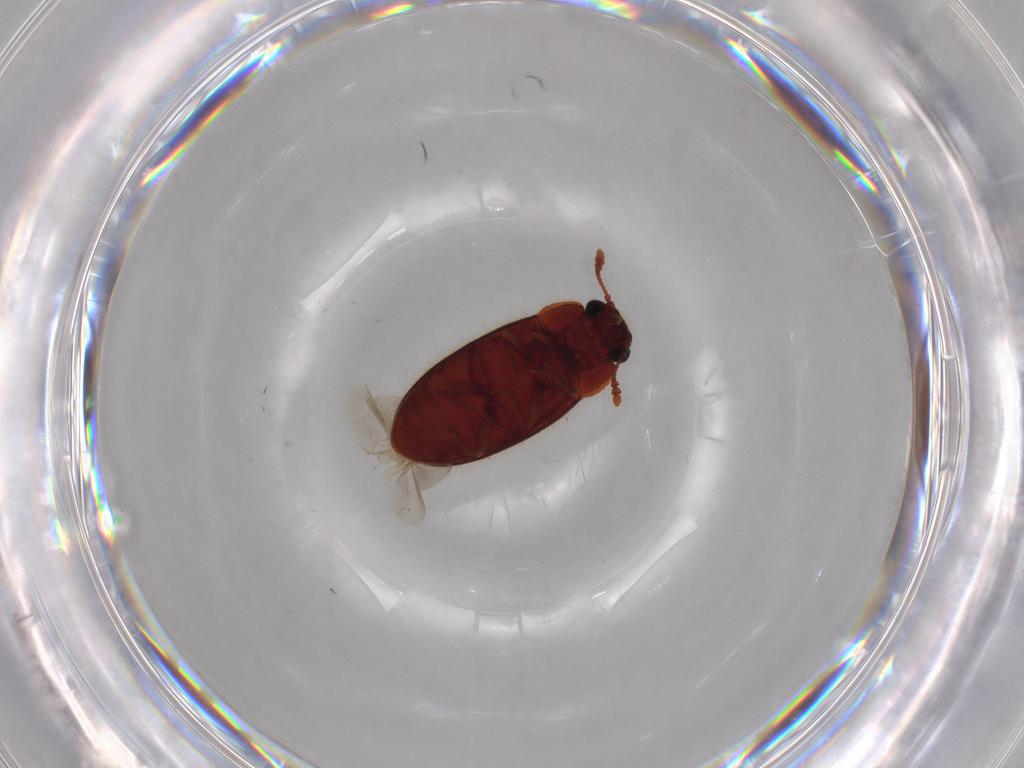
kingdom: Animalia
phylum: Arthropoda
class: Insecta
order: Coleoptera
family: Chrysomelidae
